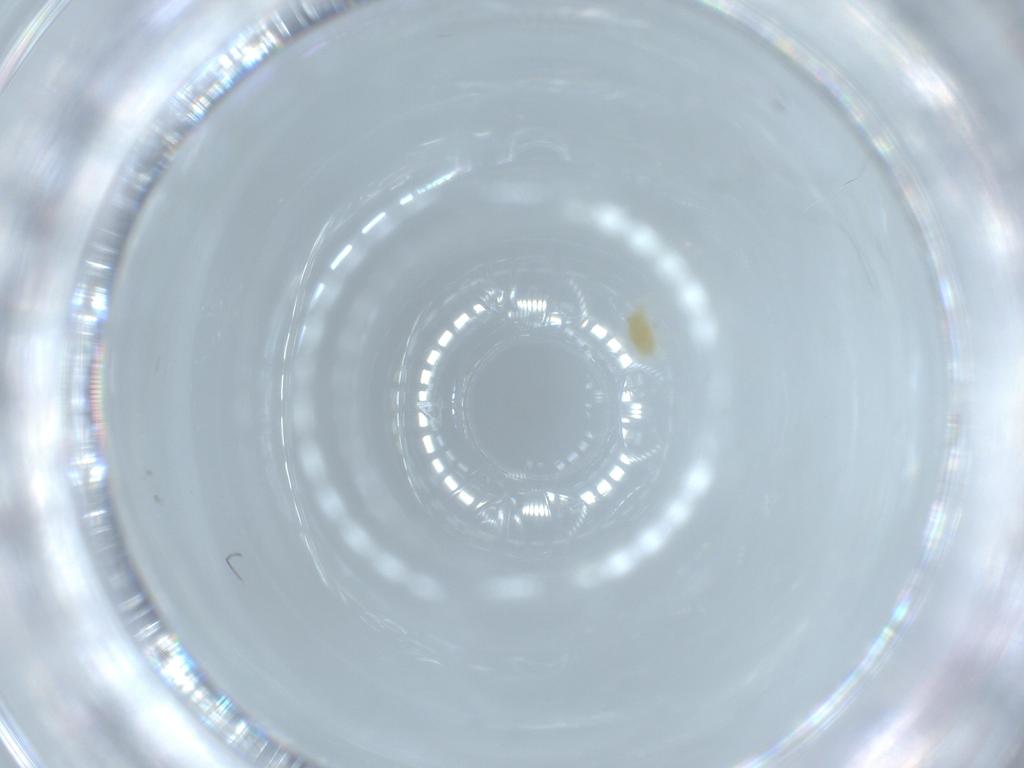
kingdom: Animalia
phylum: Arthropoda
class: Arachnida
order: Trombidiformes
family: Tetranychidae
